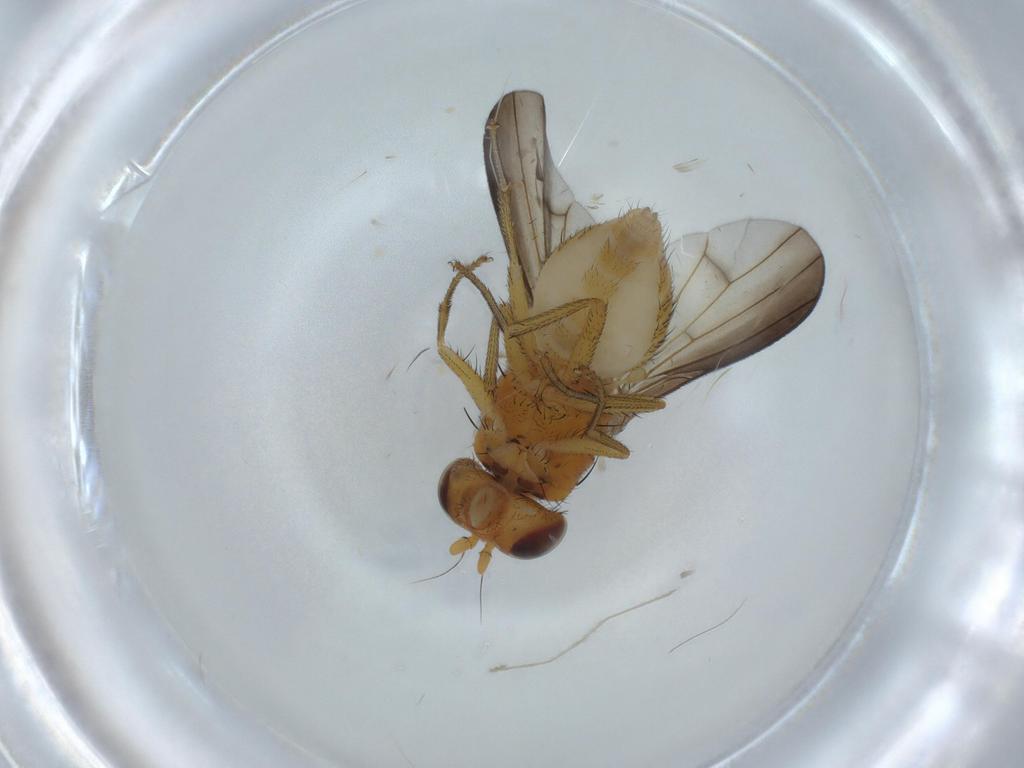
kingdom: Animalia
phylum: Arthropoda
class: Insecta
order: Diptera
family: Lauxaniidae
